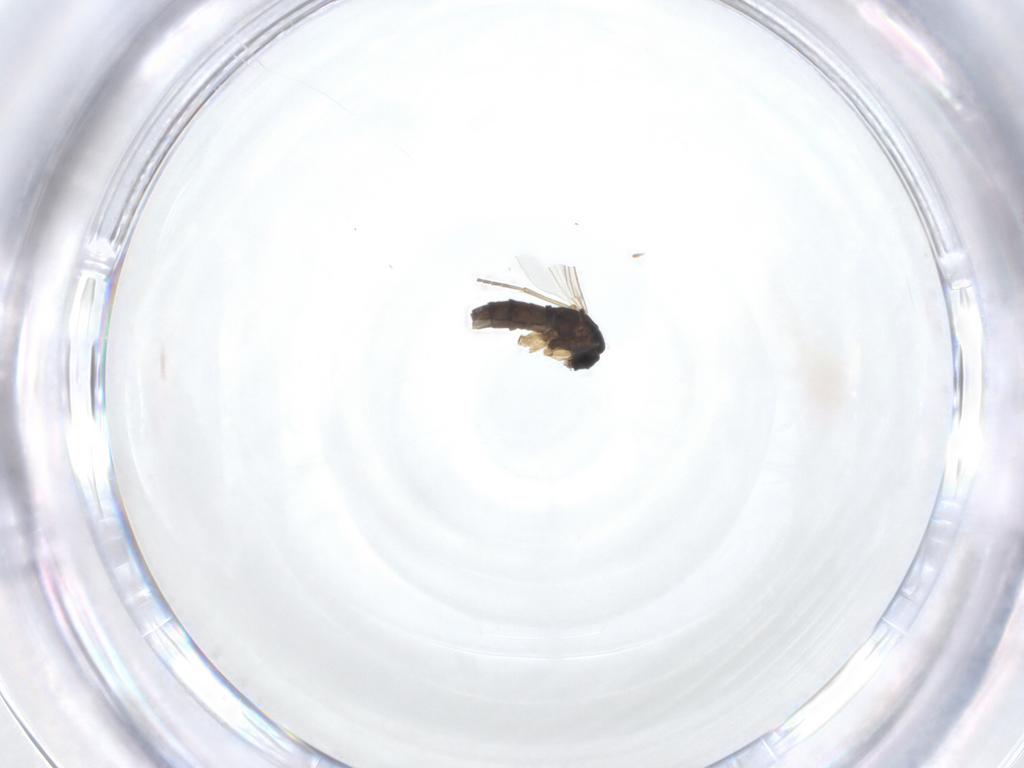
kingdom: Animalia
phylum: Arthropoda
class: Insecta
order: Diptera
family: Sciaridae
